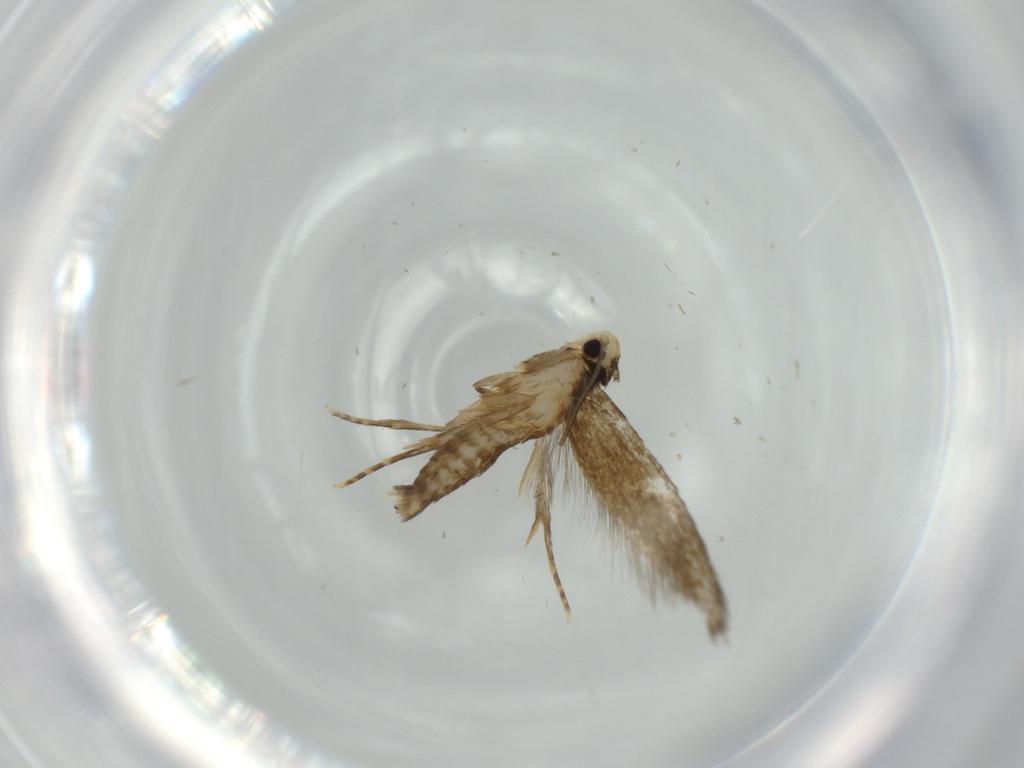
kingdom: Animalia
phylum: Arthropoda
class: Insecta
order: Lepidoptera
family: Tineidae
